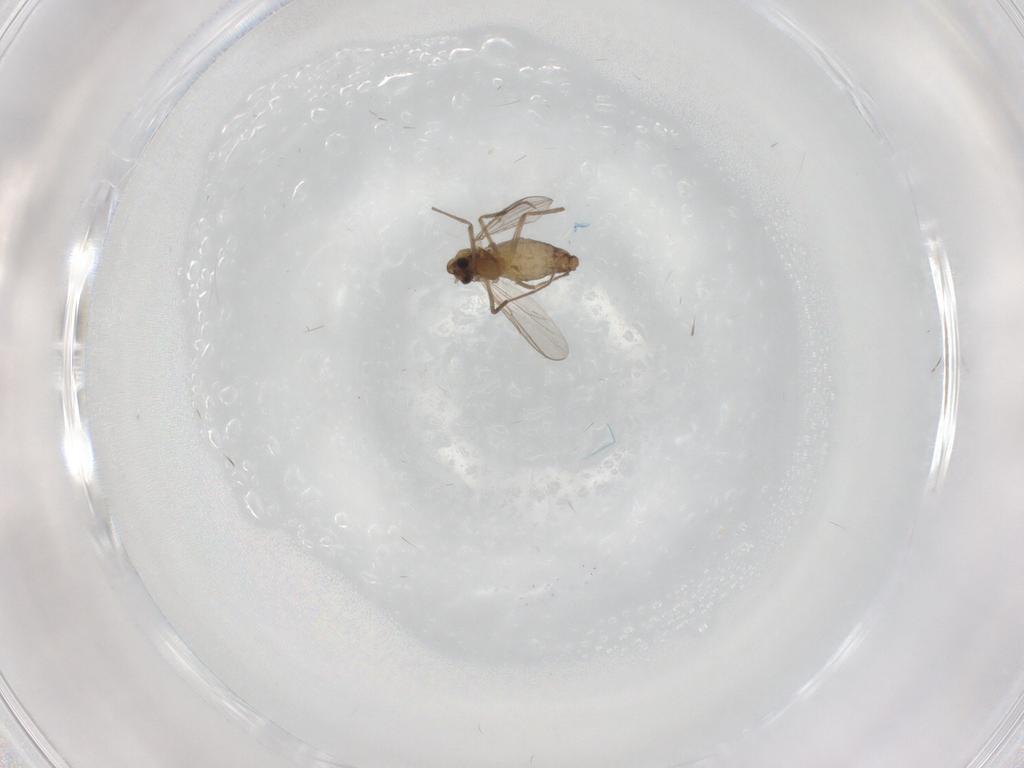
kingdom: Animalia
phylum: Arthropoda
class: Insecta
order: Diptera
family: Chironomidae
